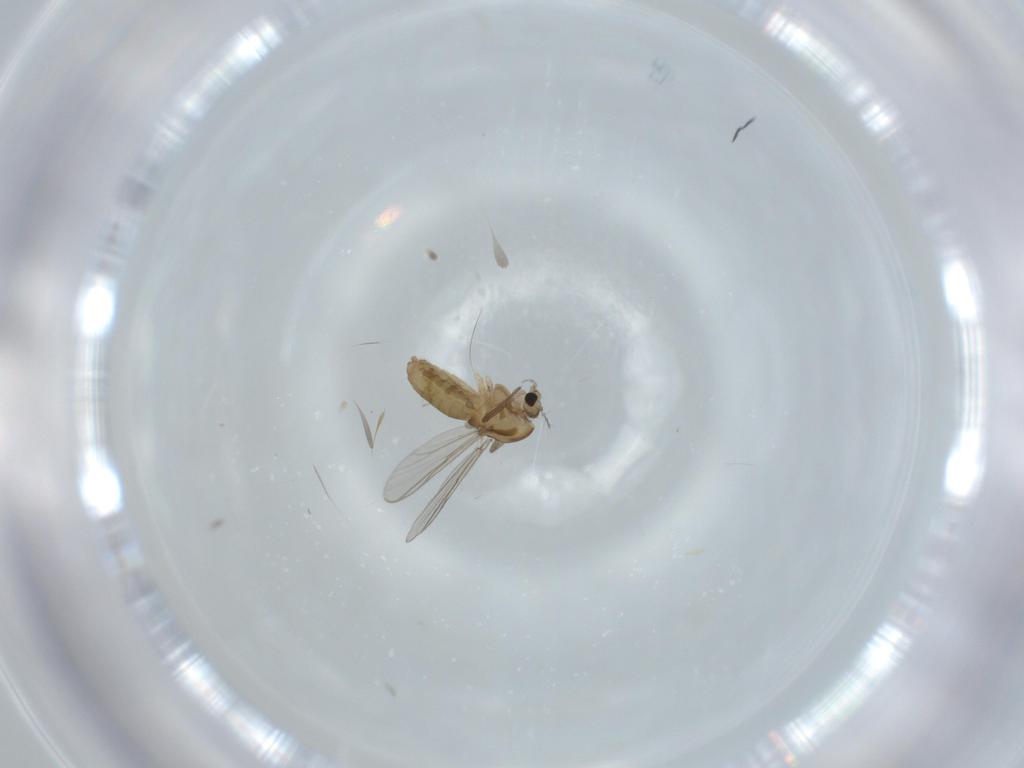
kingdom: Animalia
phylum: Arthropoda
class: Insecta
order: Diptera
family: Chironomidae
